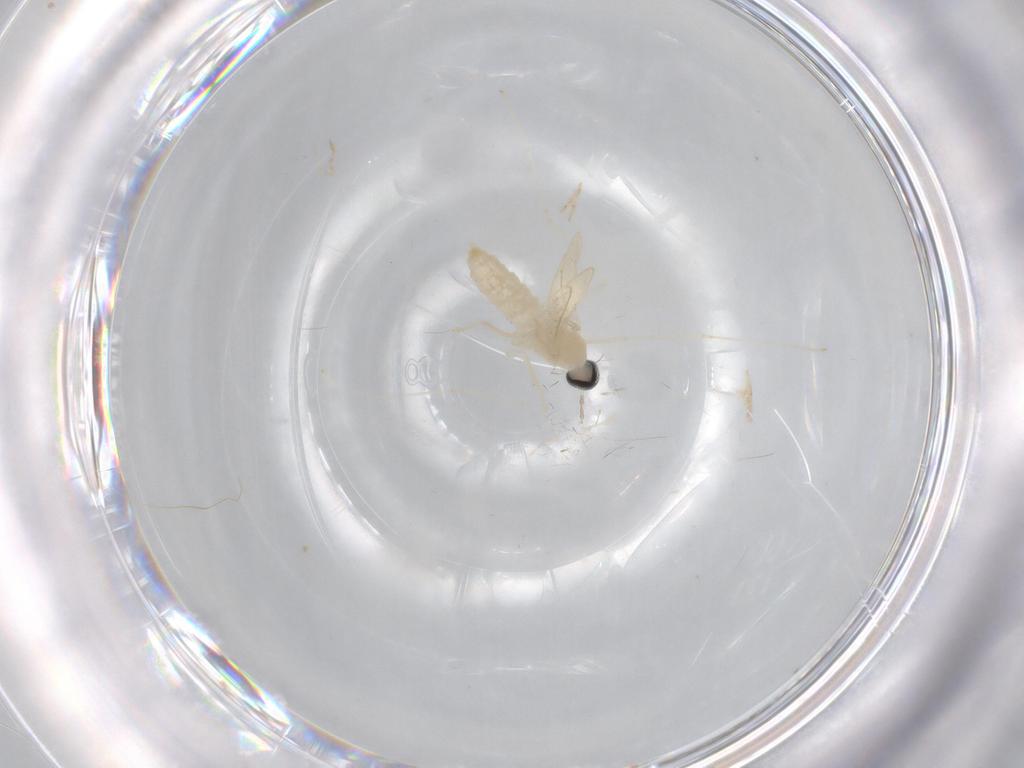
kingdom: Animalia
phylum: Arthropoda
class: Insecta
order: Diptera
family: Cecidomyiidae
